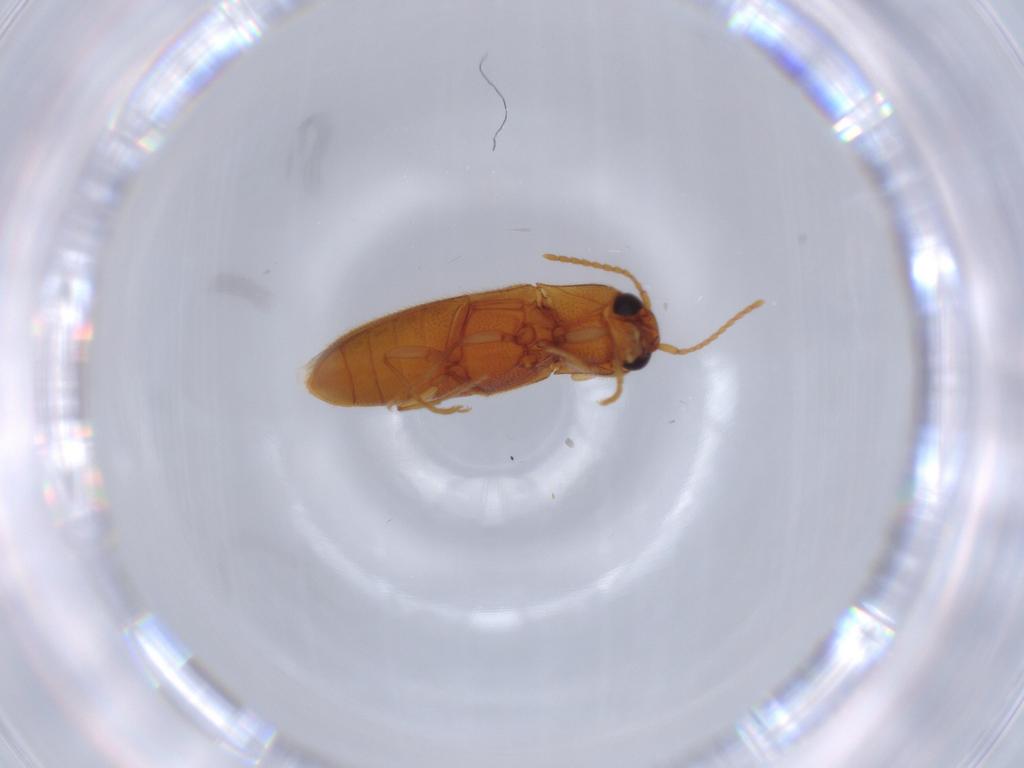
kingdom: Animalia
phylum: Arthropoda
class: Insecta
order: Coleoptera
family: Elateridae
